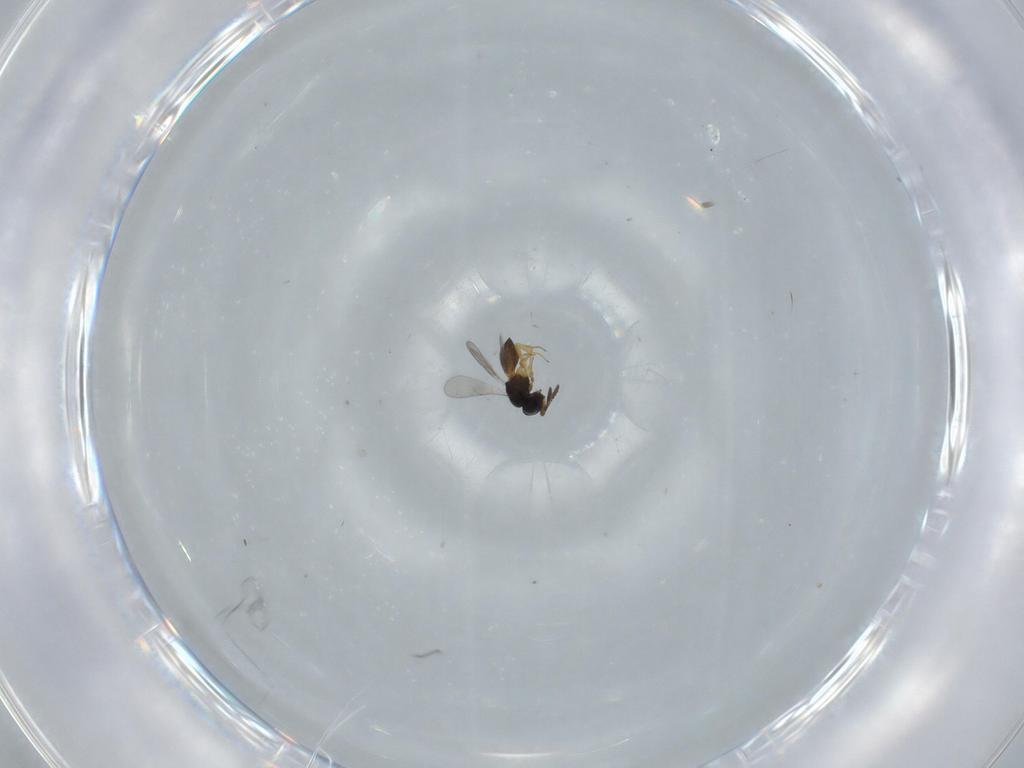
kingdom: Animalia
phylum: Arthropoda
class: Insecta
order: Hymenoptera
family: Scelionidae
